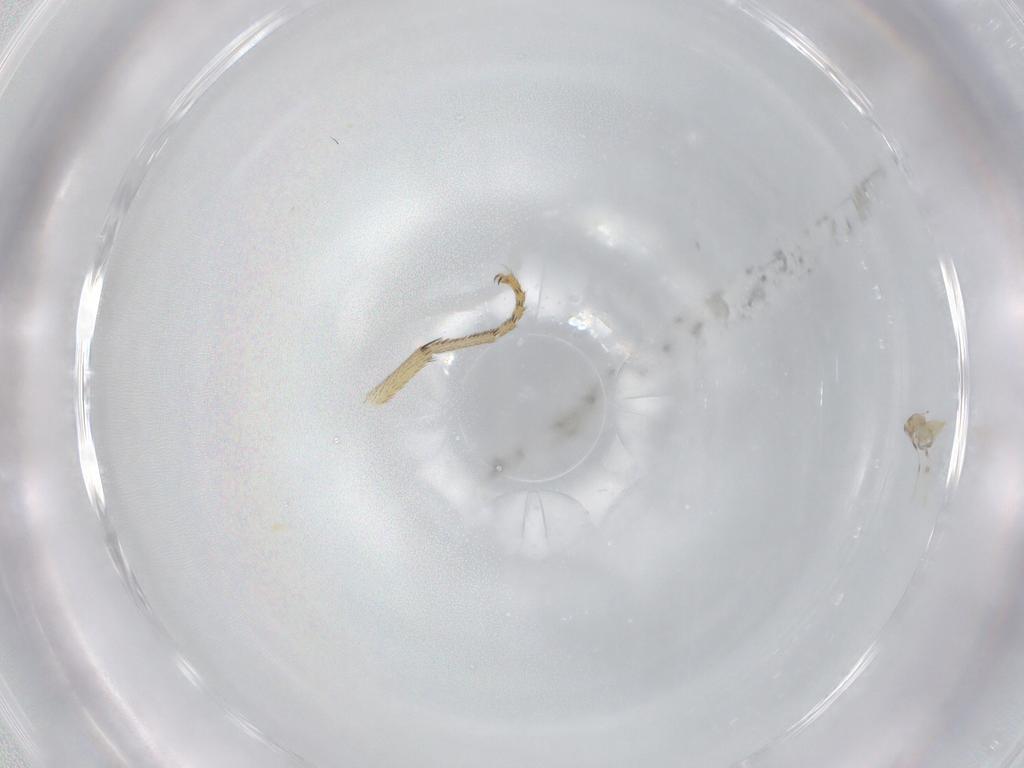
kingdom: Animalia
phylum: Arthropoda
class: Insecta
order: Diptera
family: Tephritidae
